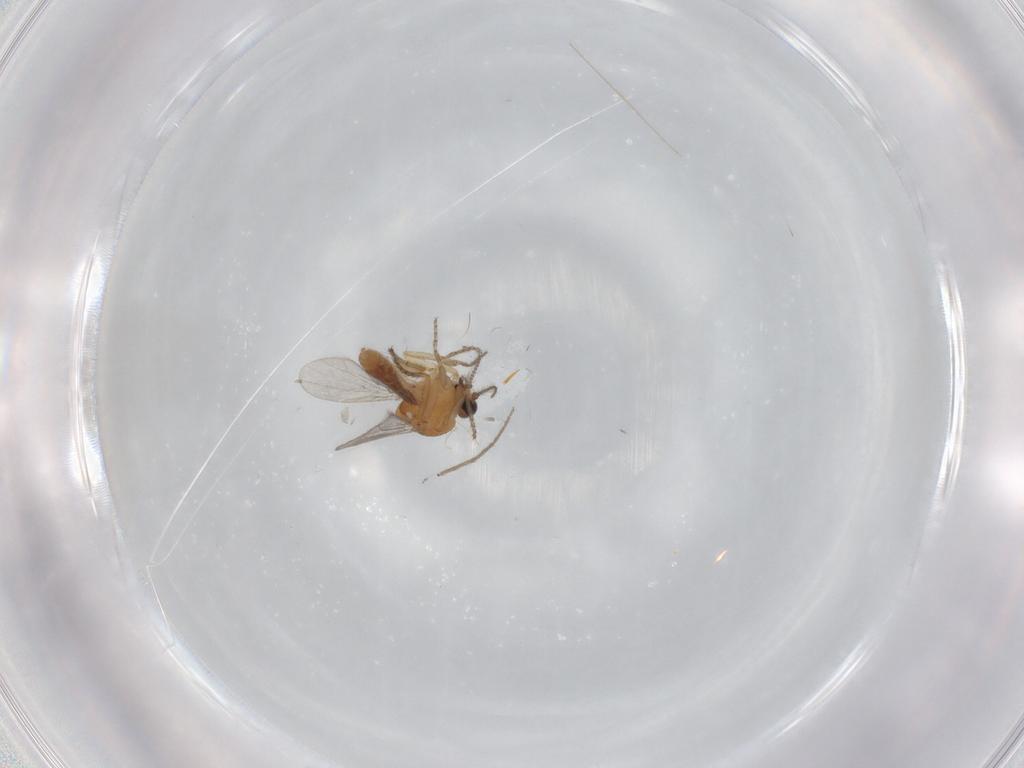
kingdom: Animalia
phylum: Arthropoda
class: Insecta
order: Diptera
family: Ceratopogonidae
